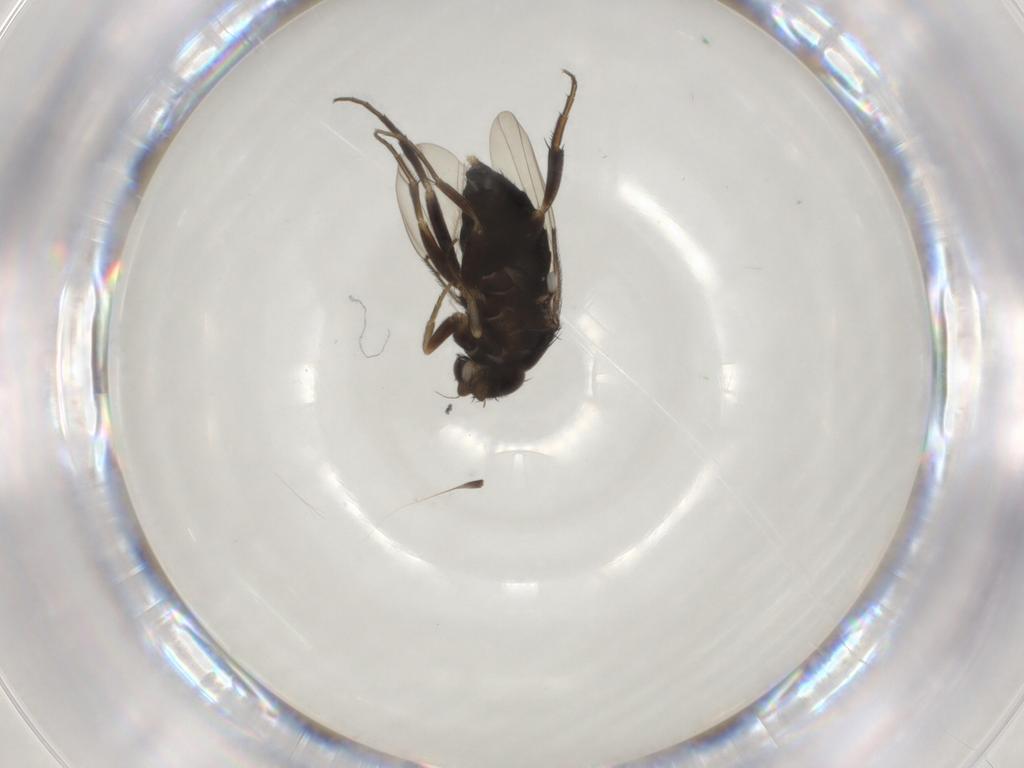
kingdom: Animalia
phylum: Arthropoda
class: Insecta
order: Diptera
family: Phoridae
